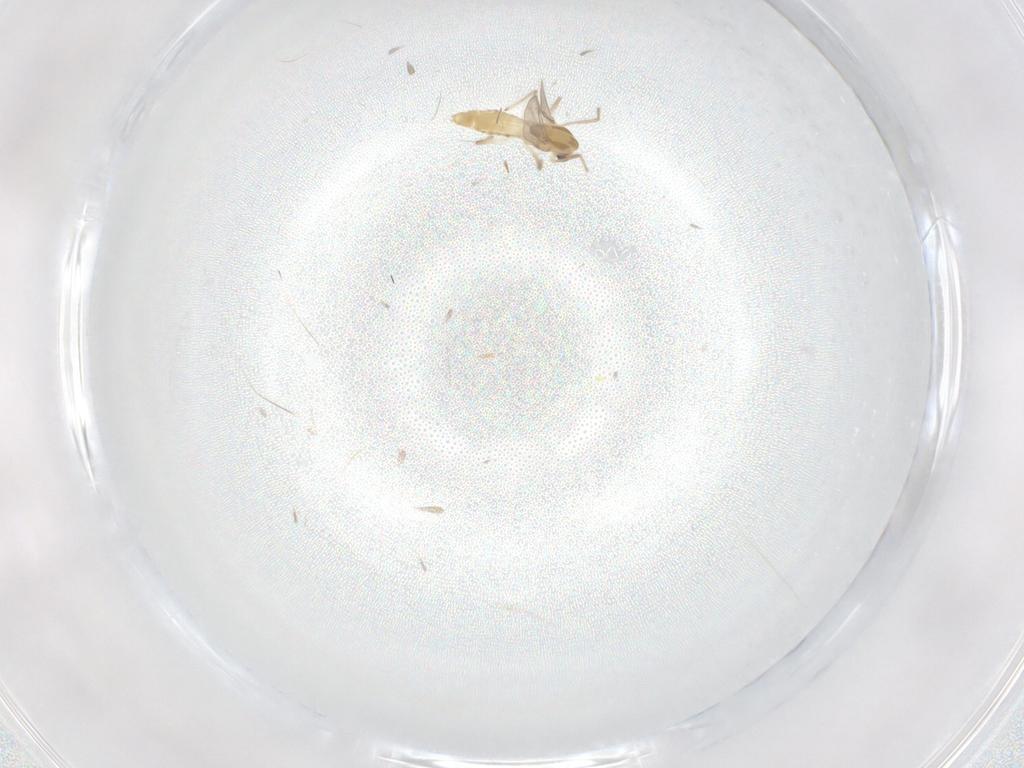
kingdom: Animalia
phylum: Arthropoda
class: Insecta
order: Diptera
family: Chironomidae
